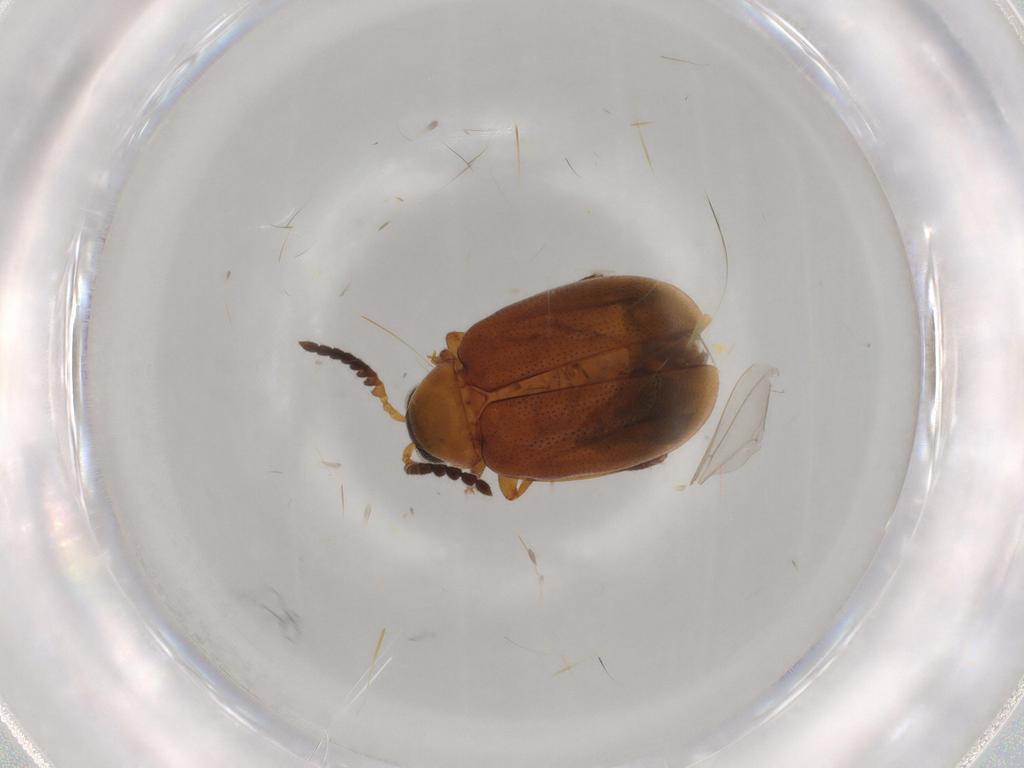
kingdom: Animalia
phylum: Arthropoda
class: Insecta
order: Coleoptera
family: Chrysomelidae
